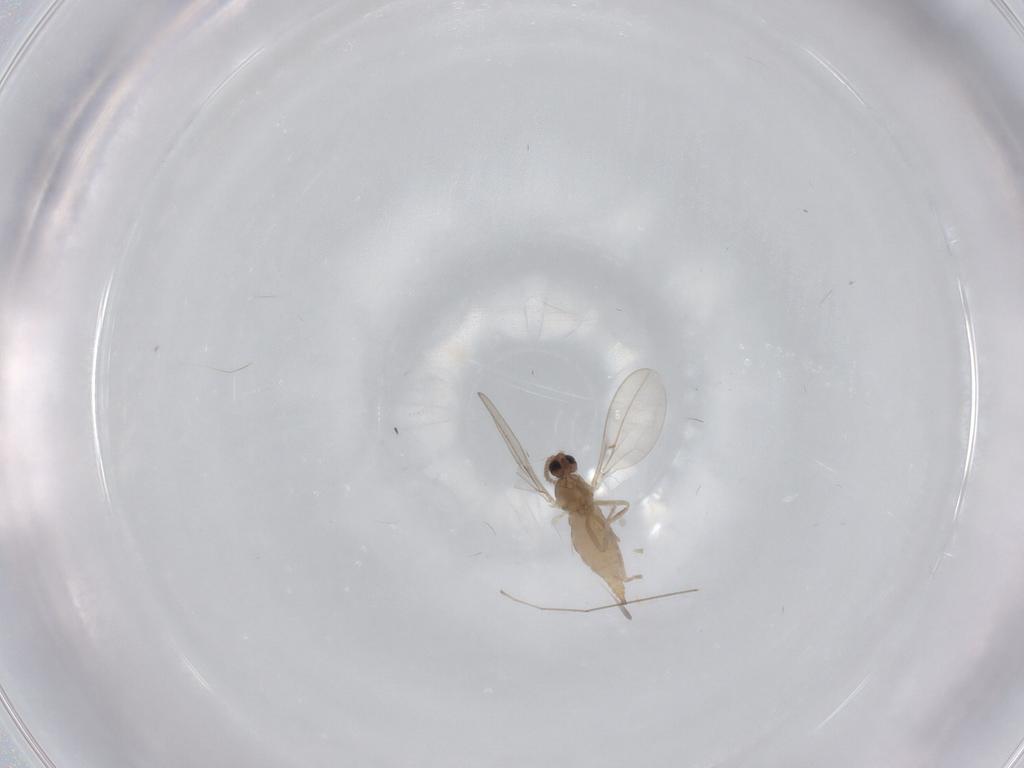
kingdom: Animalia
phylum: Arthropoda
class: Insecta
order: Diptera
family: Cecidomyiidae
